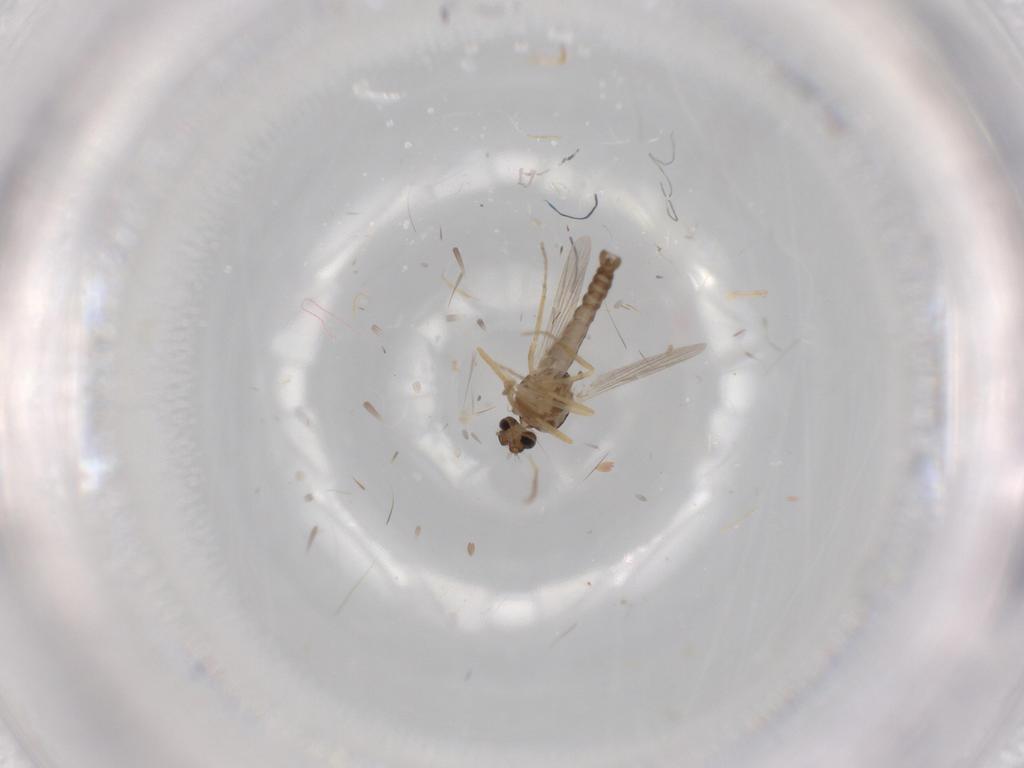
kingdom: Animalia
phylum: Arthropoda
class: Insecta
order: Diptera
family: Ceratopogonidae
